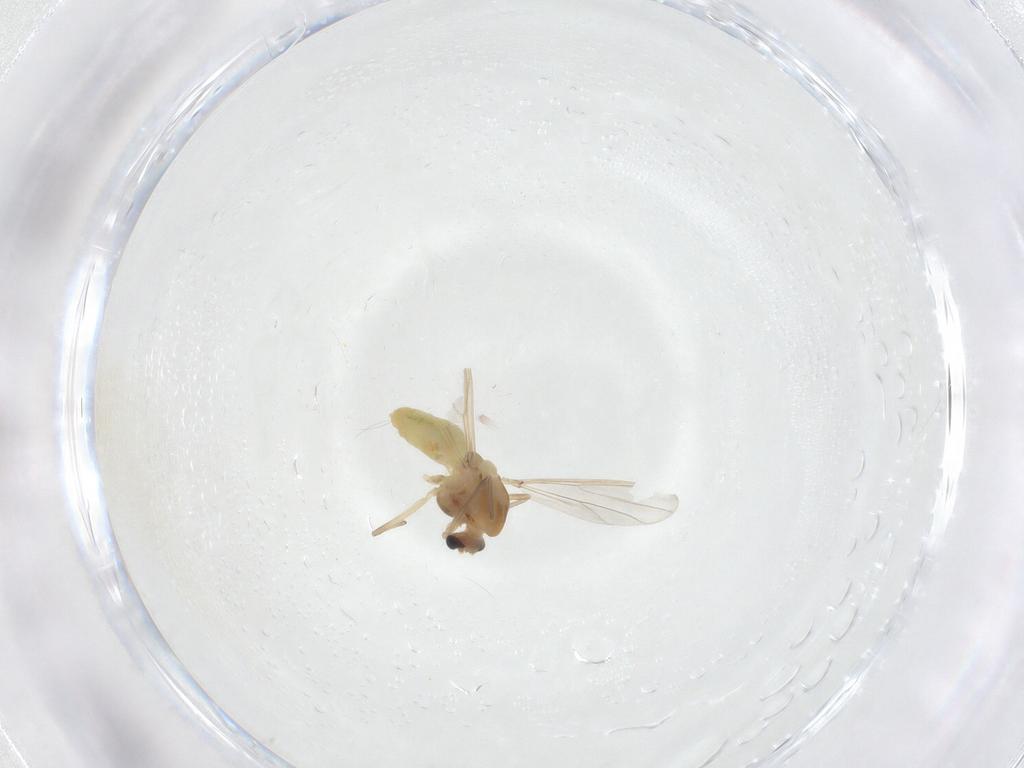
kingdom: Animalia
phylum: Arthropoda
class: Insecta
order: Diptera
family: Chironomidae
